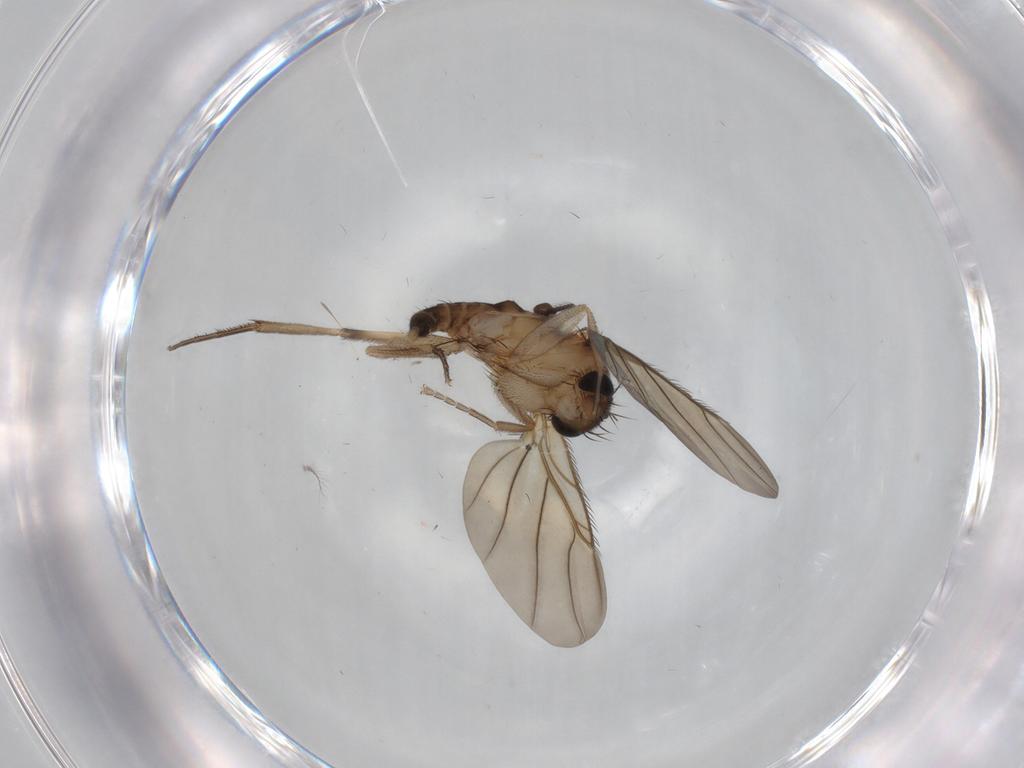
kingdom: Animalia
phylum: Arthropoda
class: Insecta
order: Diptera
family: Phoridae
